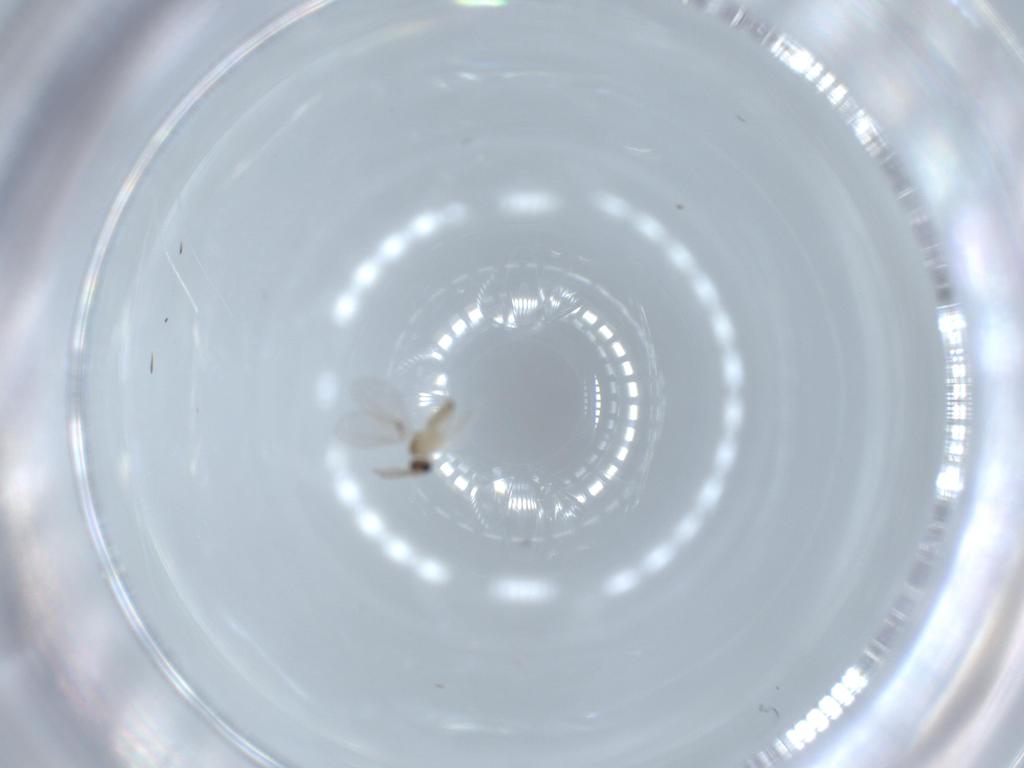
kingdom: Animalia
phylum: Arthropoda
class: Insecta
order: Diptera
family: Cecidomyiidae
